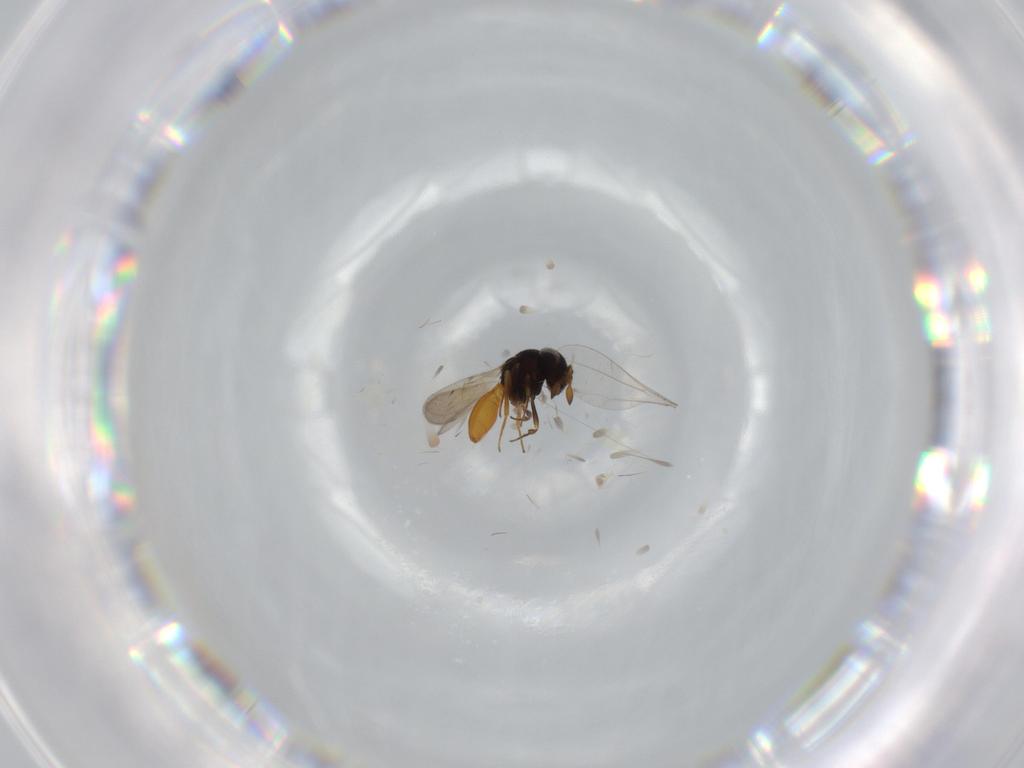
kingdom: Animalia
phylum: Arthropoda
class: Insecta
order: Hymenoptera
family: Scelionidae
